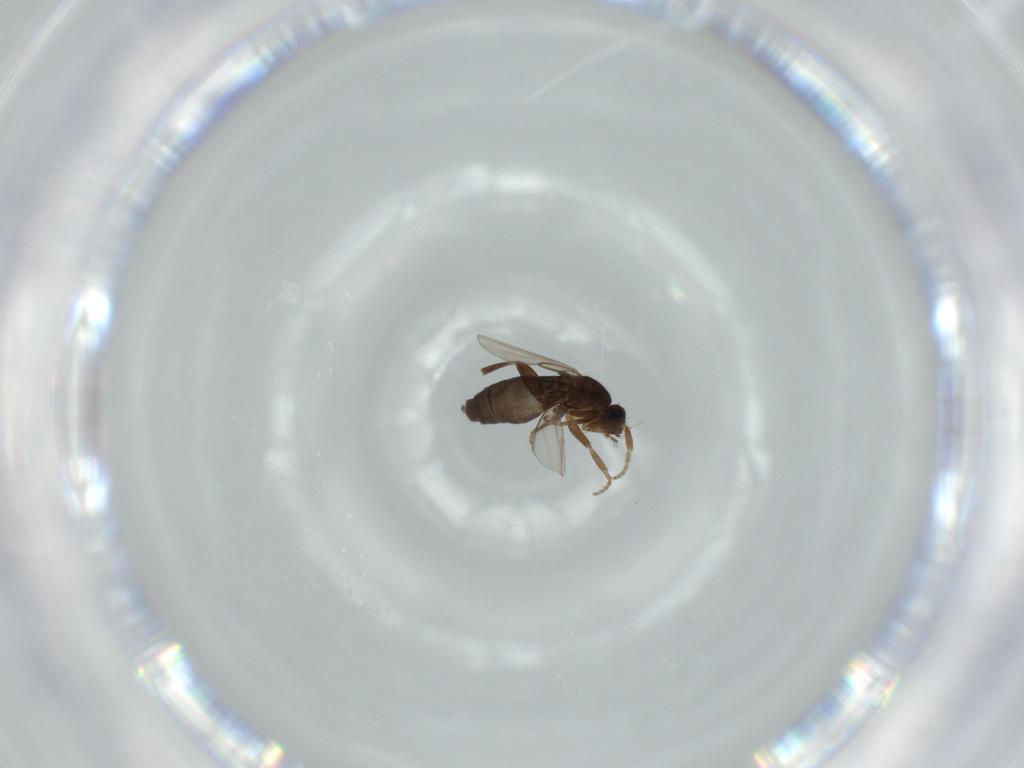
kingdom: Animalia
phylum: Arthropoda
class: Insecta
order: Diptera
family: Phoridae
